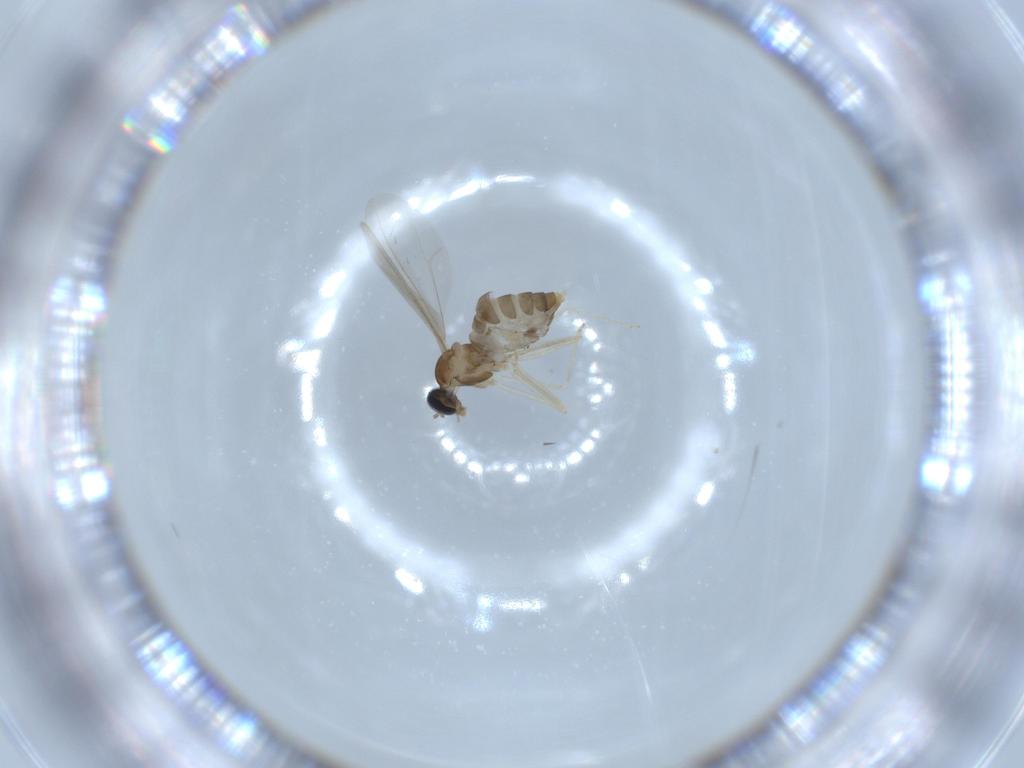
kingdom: Animalia
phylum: Arthropoda
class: Insecta
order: Diptera
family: Cecidomyiidae
